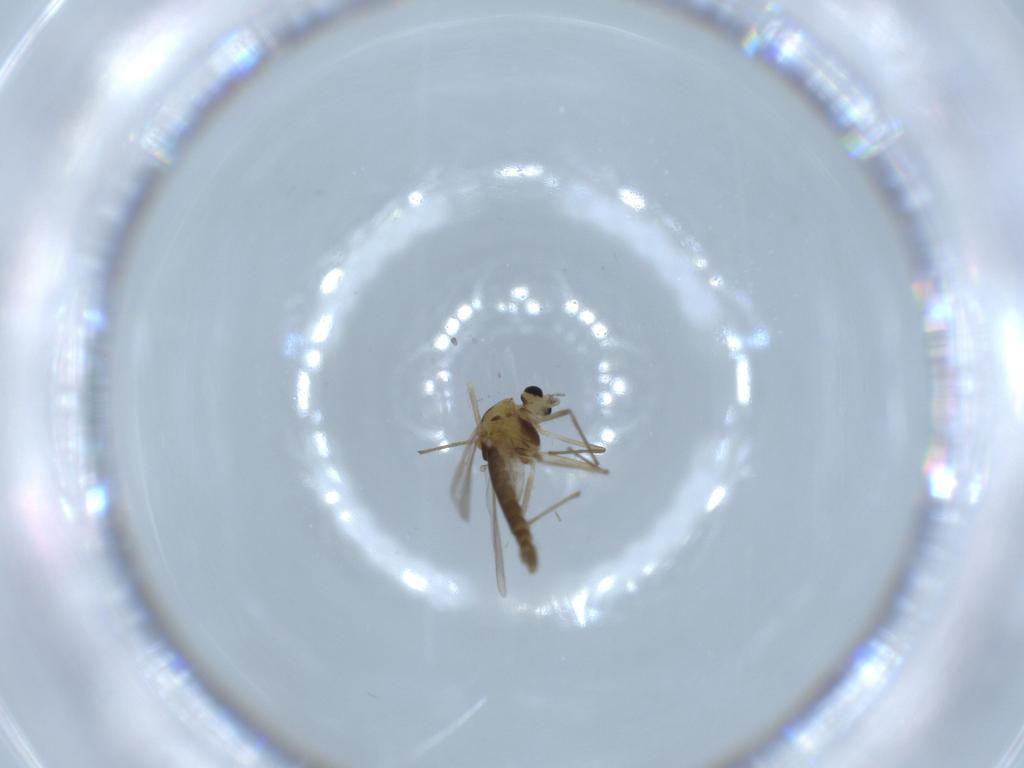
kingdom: Animalia
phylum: Arthropoda
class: Insecta
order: Diptera
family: Chironomidae
